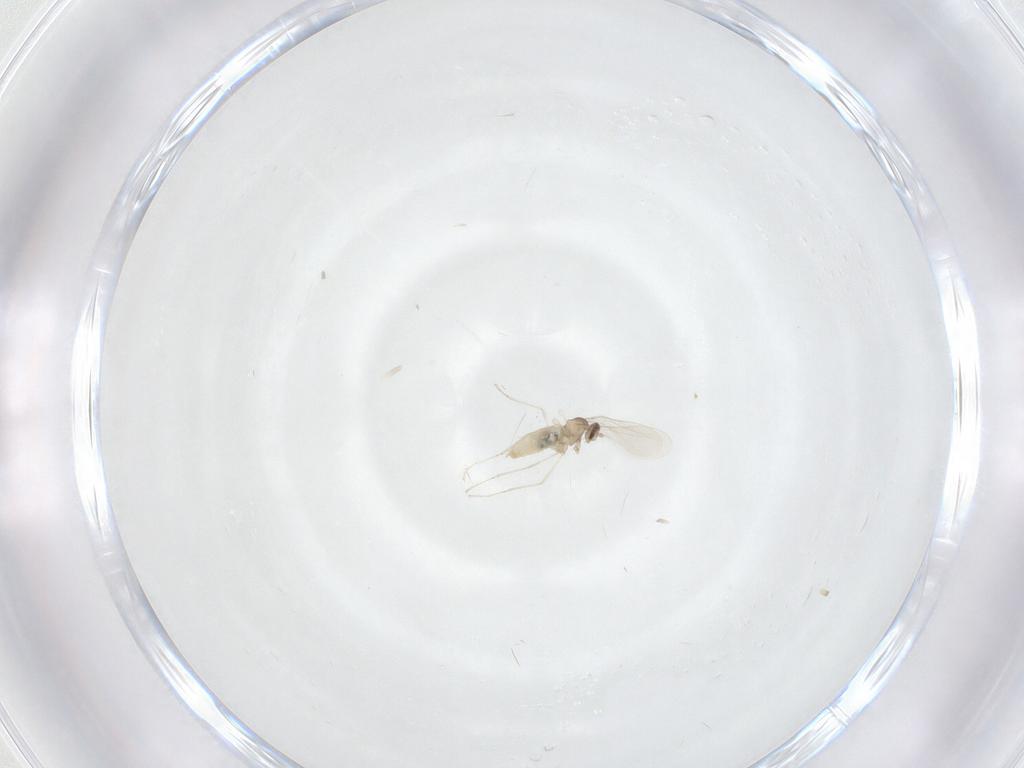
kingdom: Animalia
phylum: Arthropoda
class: Insecta
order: Diptera
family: Cecidomyiidae
